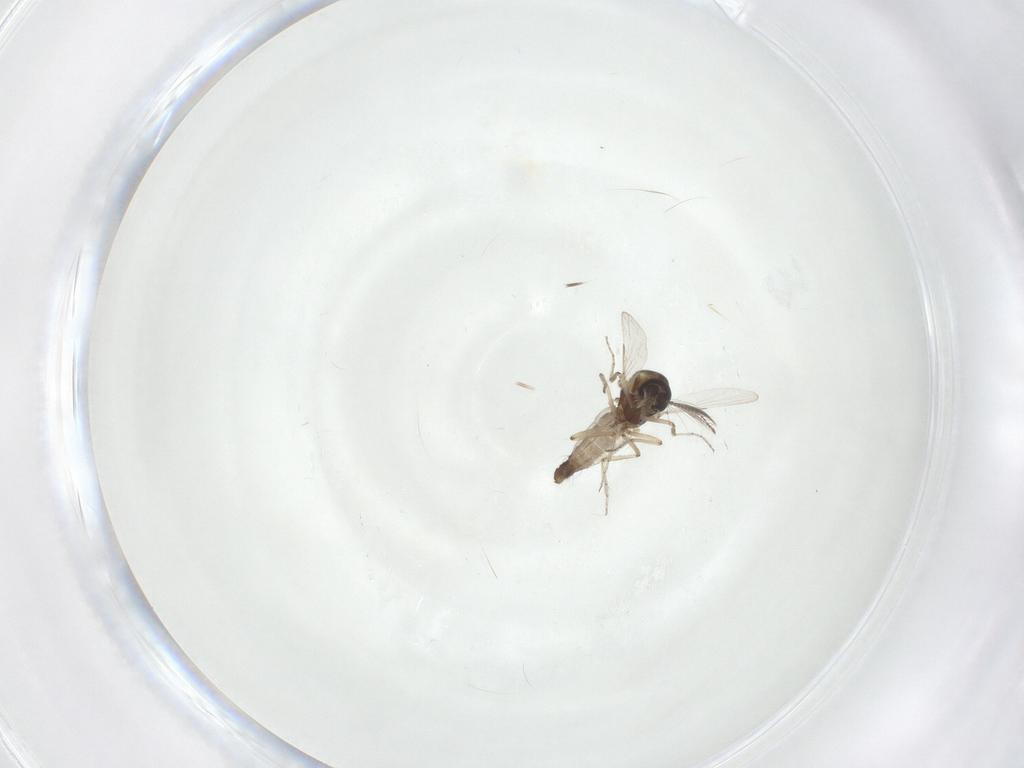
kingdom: Animalia
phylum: Arthropoda
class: Insecta
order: Diptera
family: Ceratopogonidae
